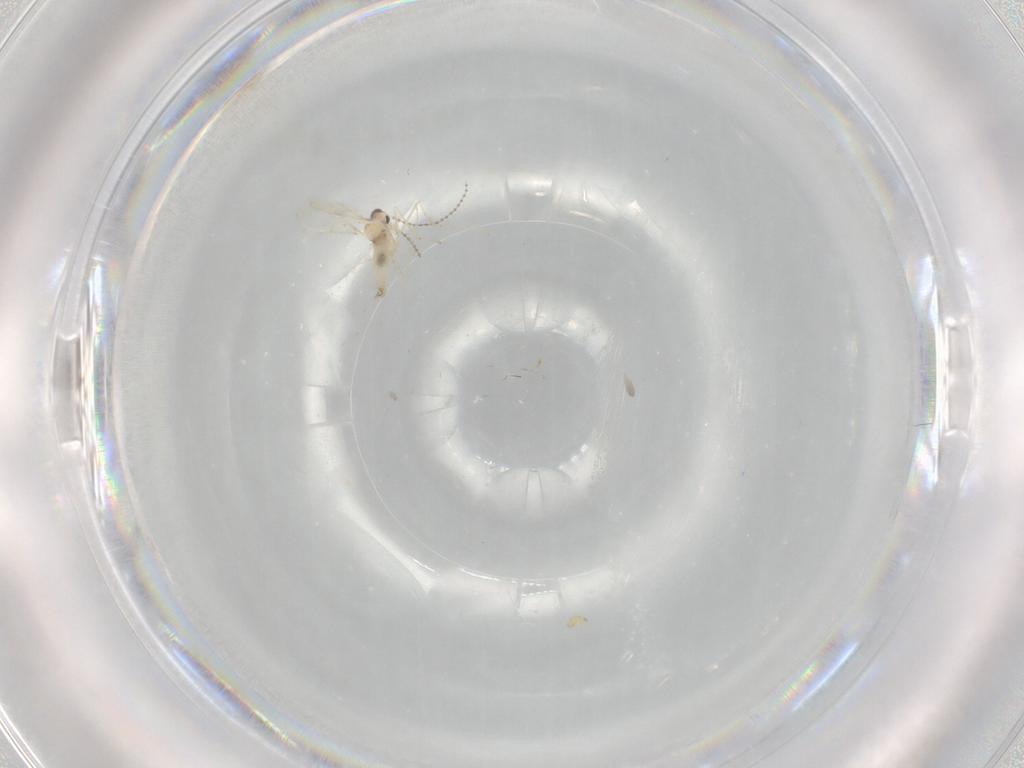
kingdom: Animalia
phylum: Arthropoda
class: Insecta
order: Diptera
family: Cecidomyiidae
